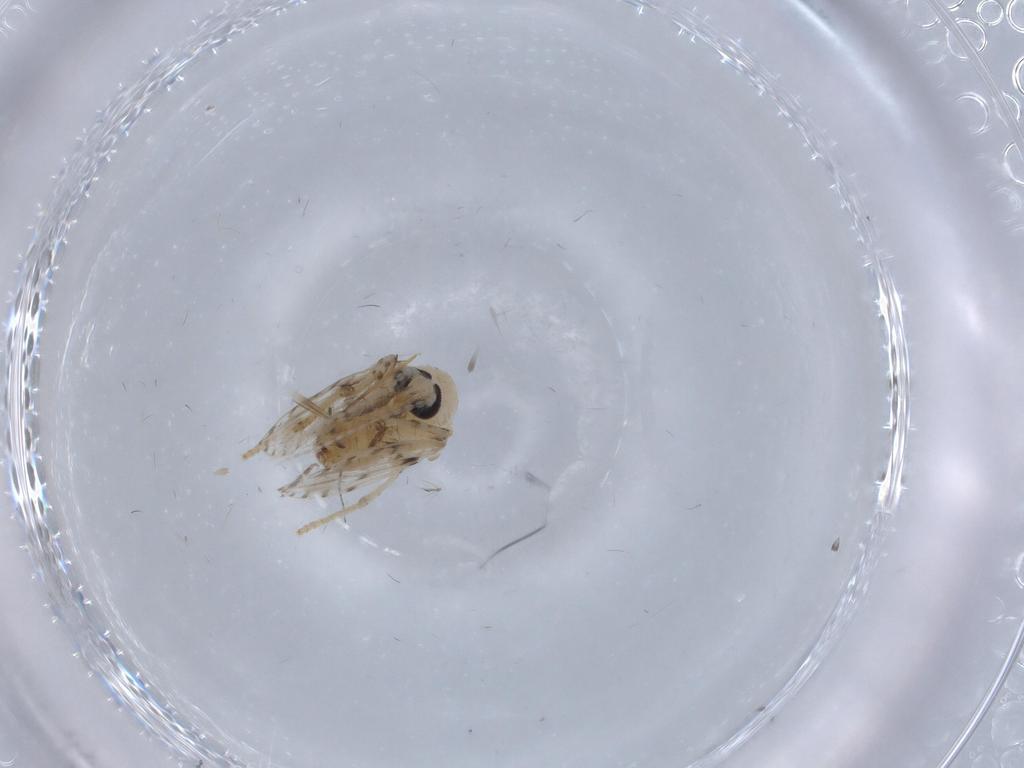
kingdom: Animalia
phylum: Arthropoda
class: Insecta
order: Diptera
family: Psychodidae
